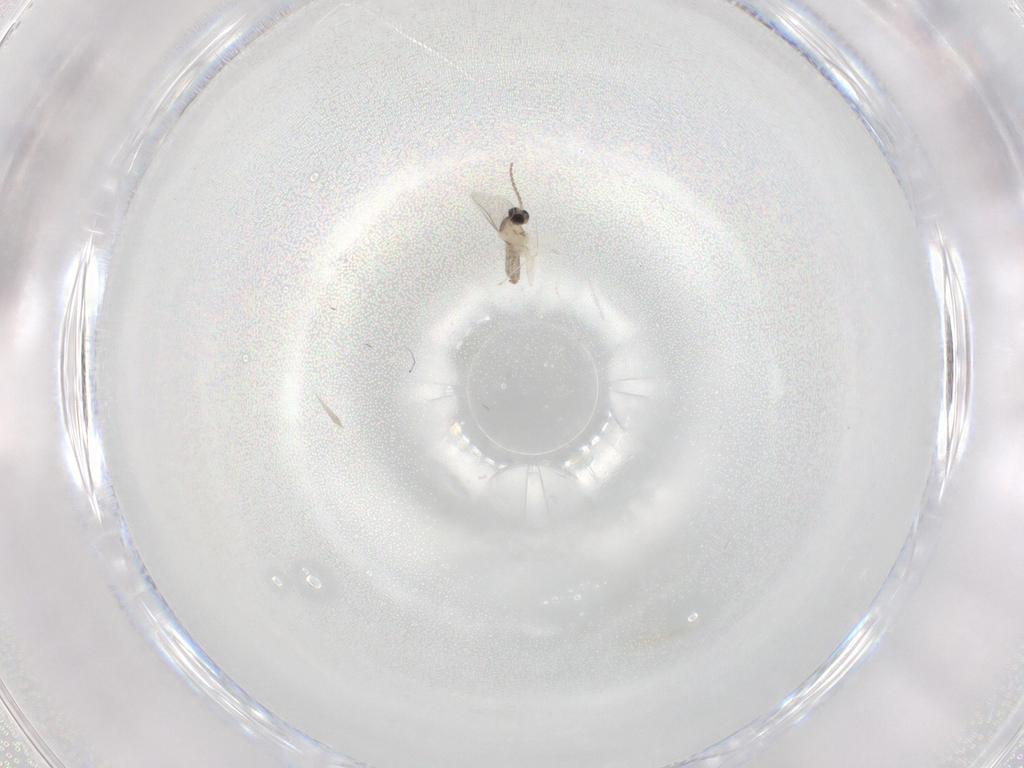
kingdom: Animalia
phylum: Arthropoda
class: Insecta
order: Diptera
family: Cecidomyiidae
